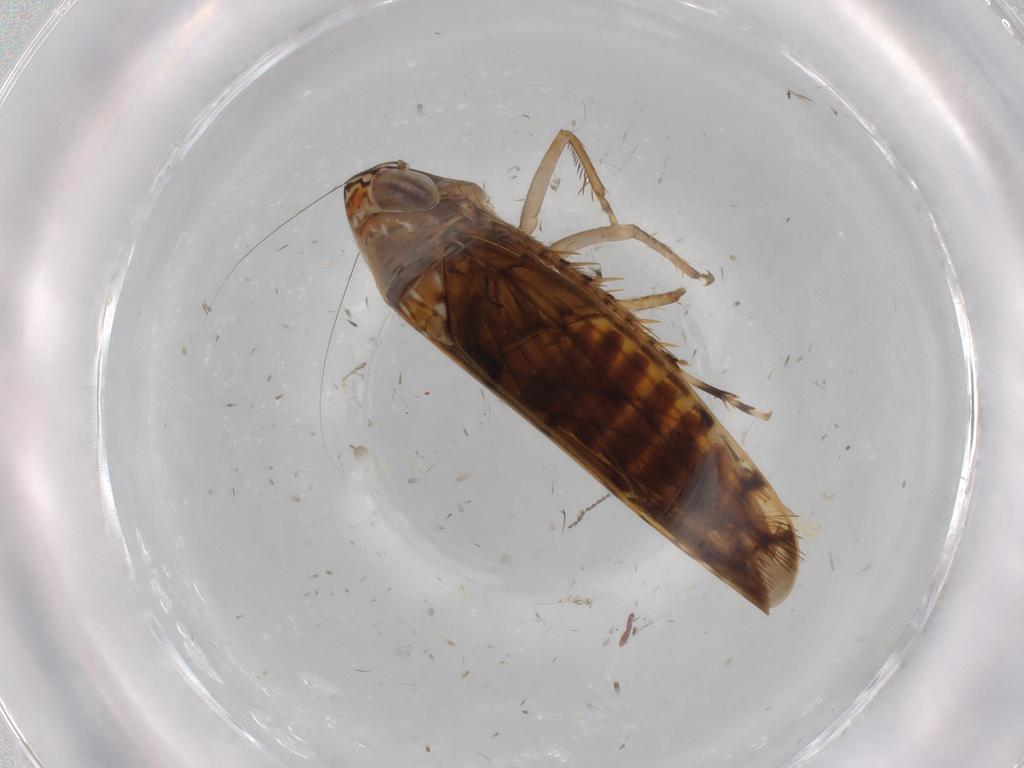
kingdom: Animalia
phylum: Arthropoda
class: Insecta
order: Hemiptera
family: Cicadellidae
